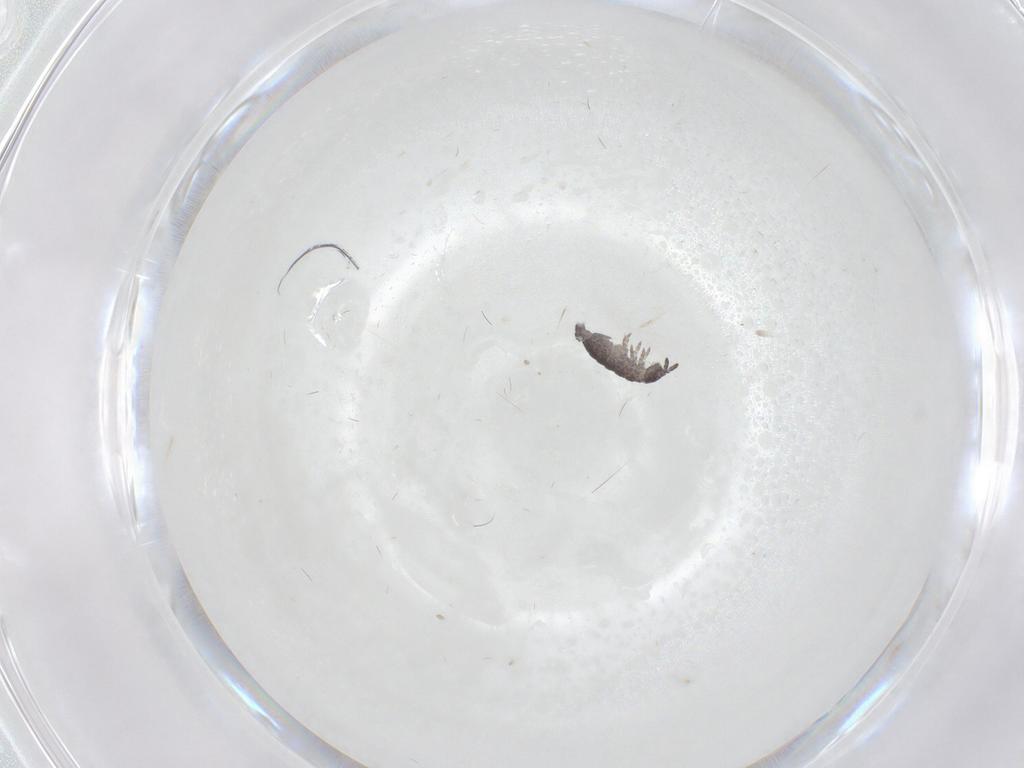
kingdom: Animalia
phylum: Arthropoda
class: Collembola
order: Poduromorpha
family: Hypogastruridae
